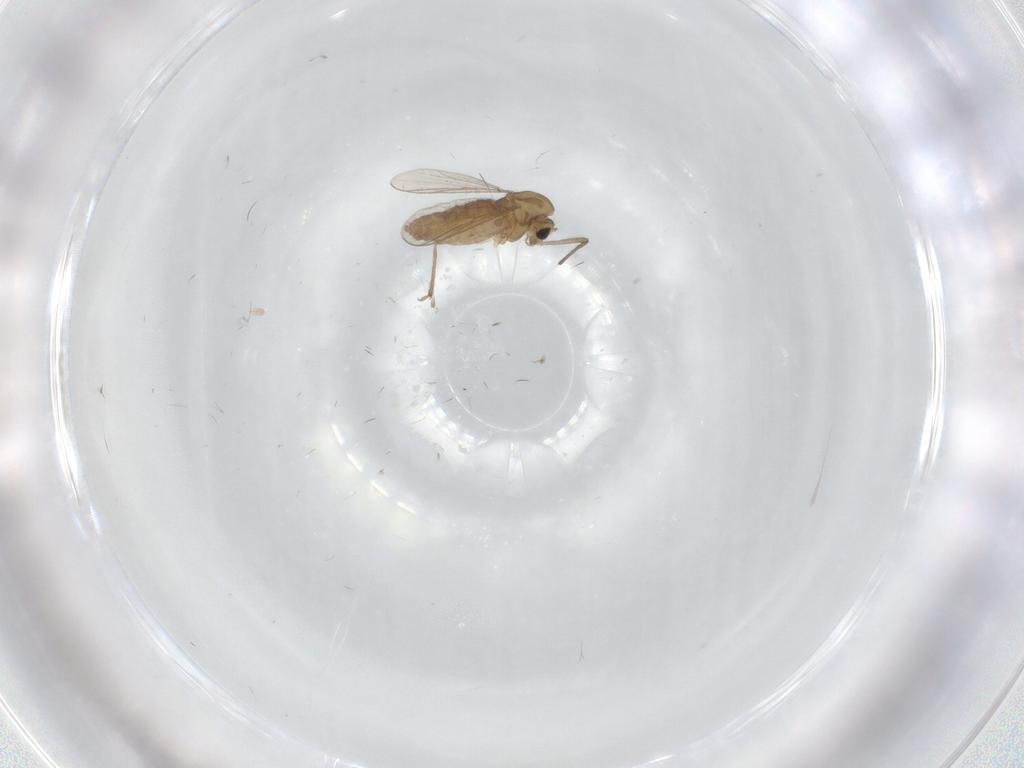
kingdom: Animalia
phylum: Arthropoda
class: Insecta
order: Diptera
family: Chironomidae
